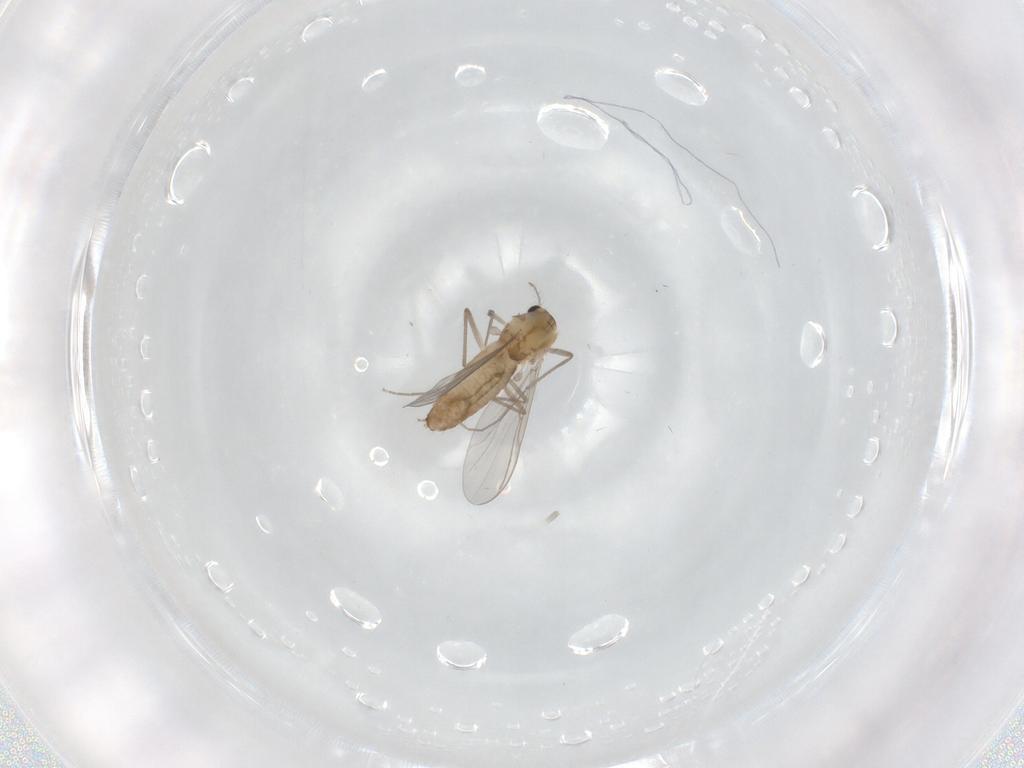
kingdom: Animalia
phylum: Arthropoda
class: Insecta
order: Diptera
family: Chironomidae
